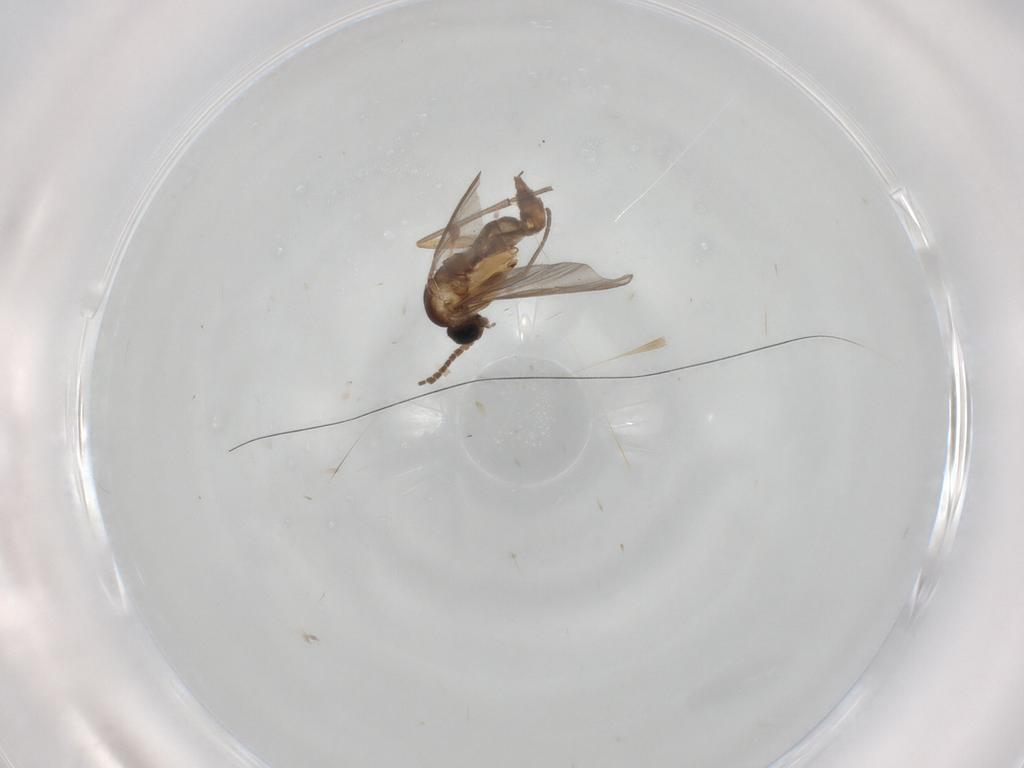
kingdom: Animalia
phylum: Arthropoda
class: Insecta
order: Diptera
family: Sciaridae
